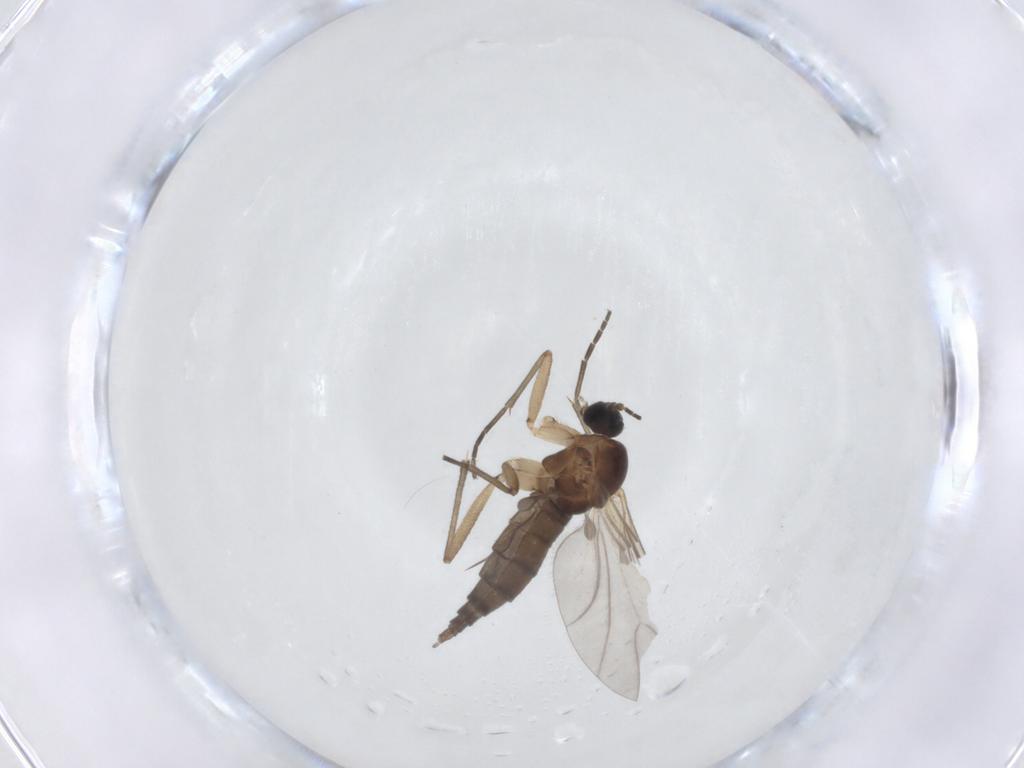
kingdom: Animalia
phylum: Arthropoda
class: Insecta
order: Diptera
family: Sciaridae
